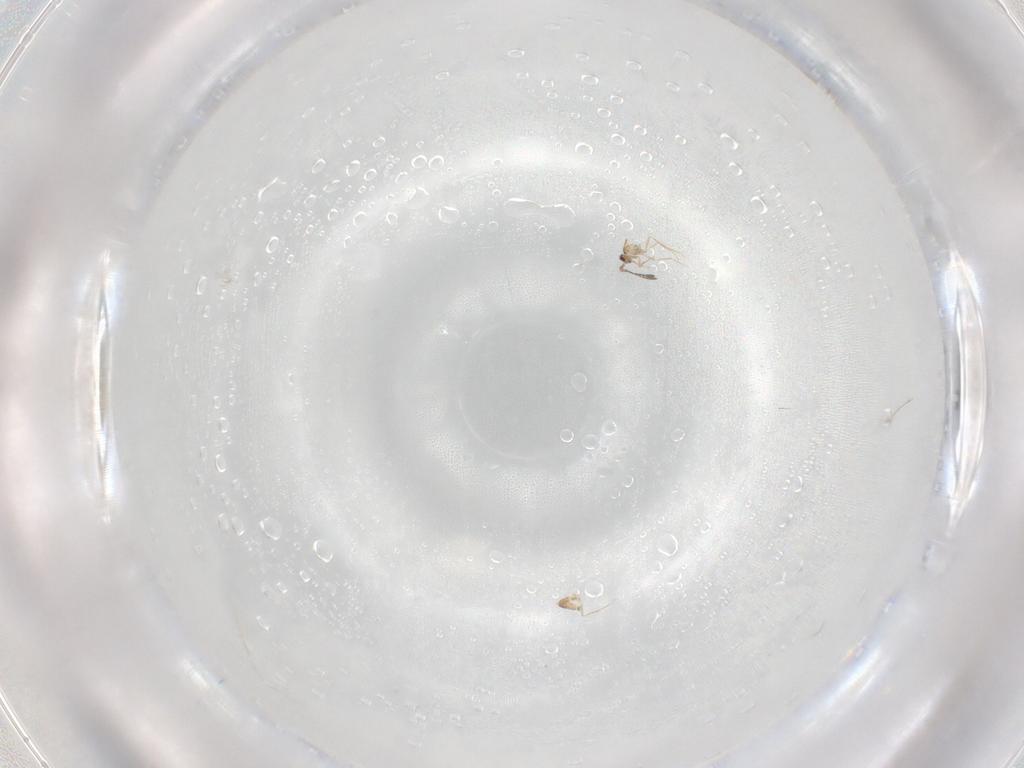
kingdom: Animalia
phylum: Arthropoda
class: Insecta
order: Hymenoptera
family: Mymaridae
